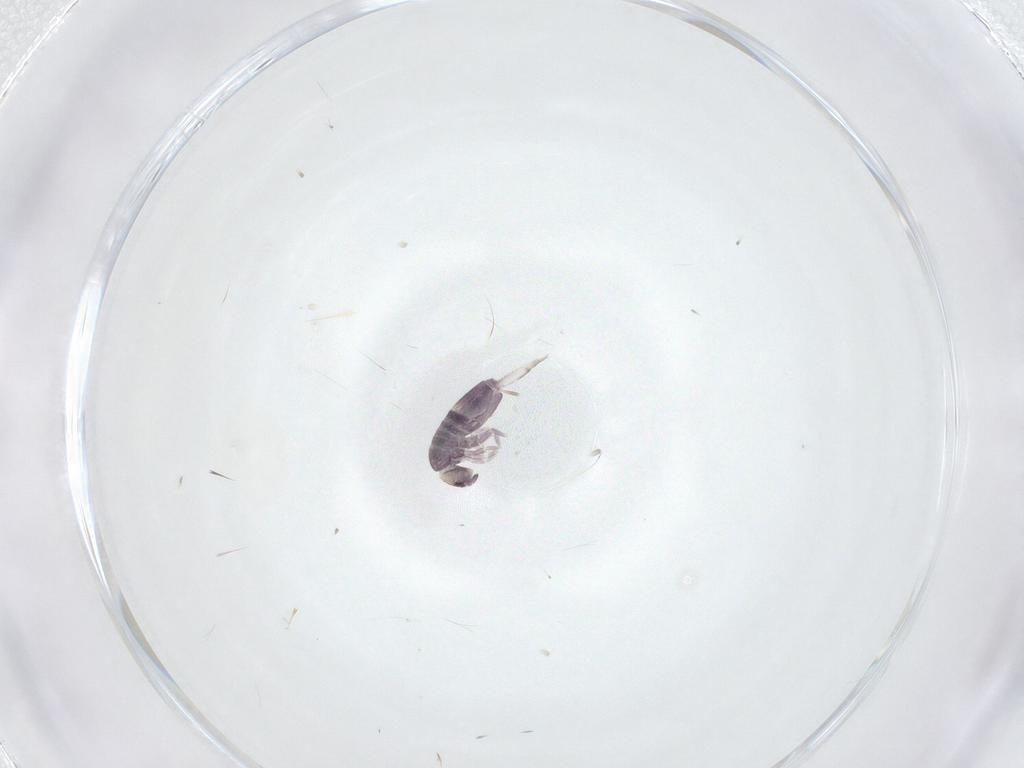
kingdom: Animalia
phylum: Arthropoda
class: Collembola
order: Entomobryomorpha
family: Entomobryidae
